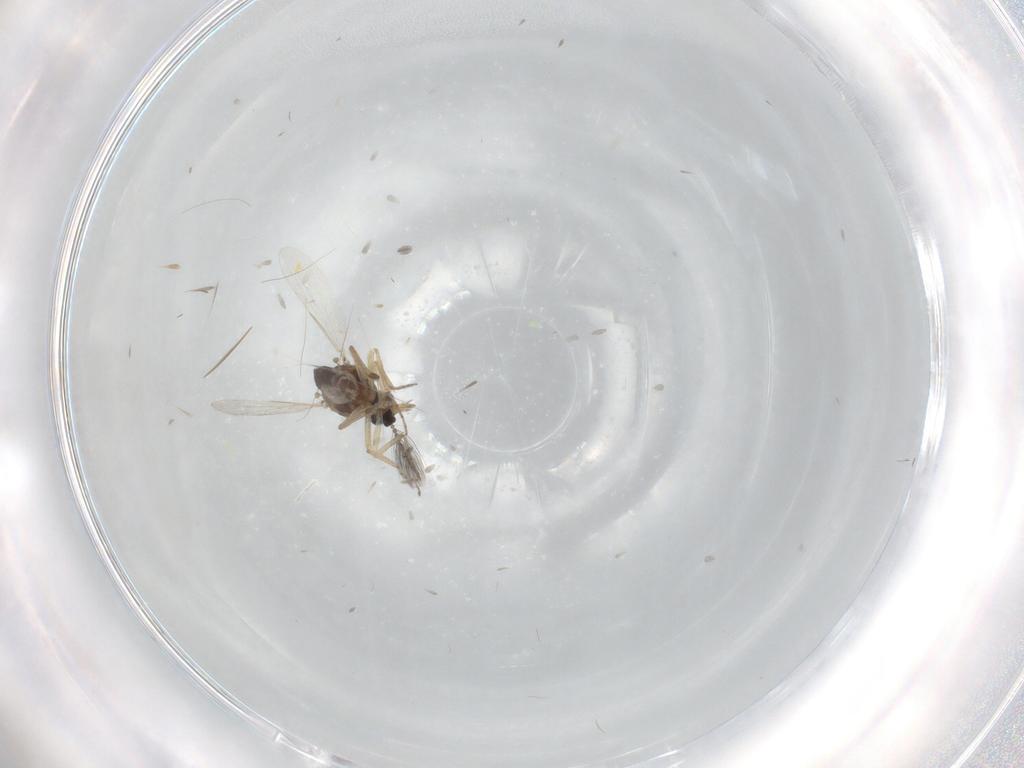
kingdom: Animalia
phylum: Arthropoda
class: Insecta
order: Diptera
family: Ceratopogonidae
